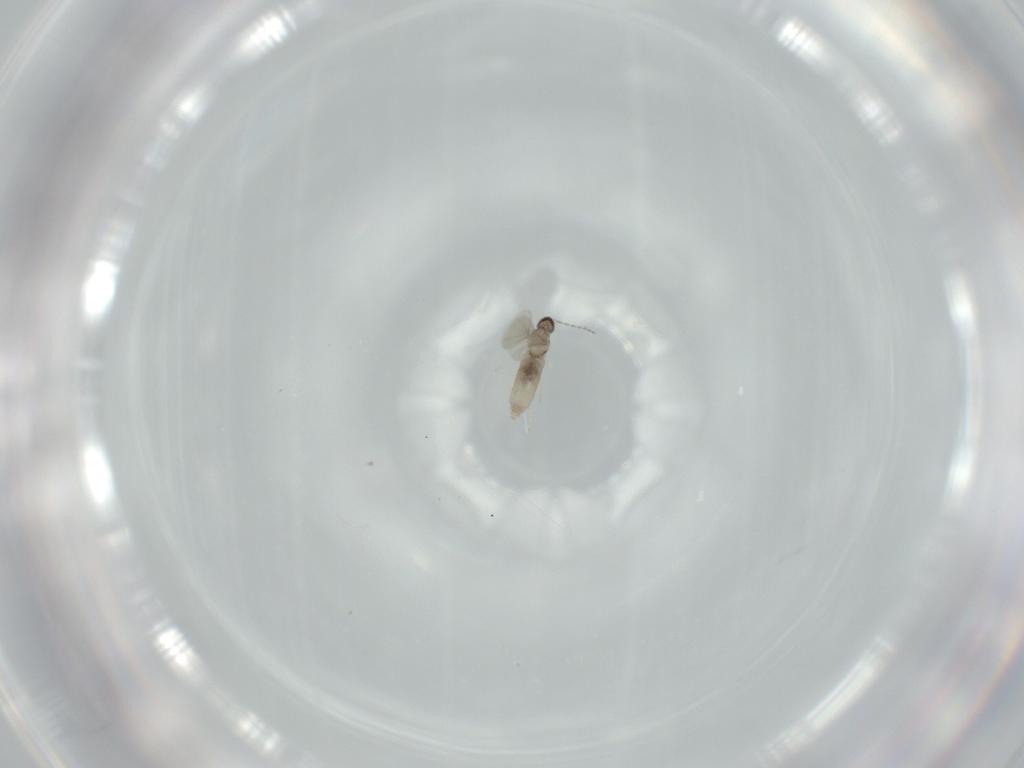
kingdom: Animalia
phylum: Arthropoda
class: Insecta
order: Diptera
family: Cecidomyiidae
